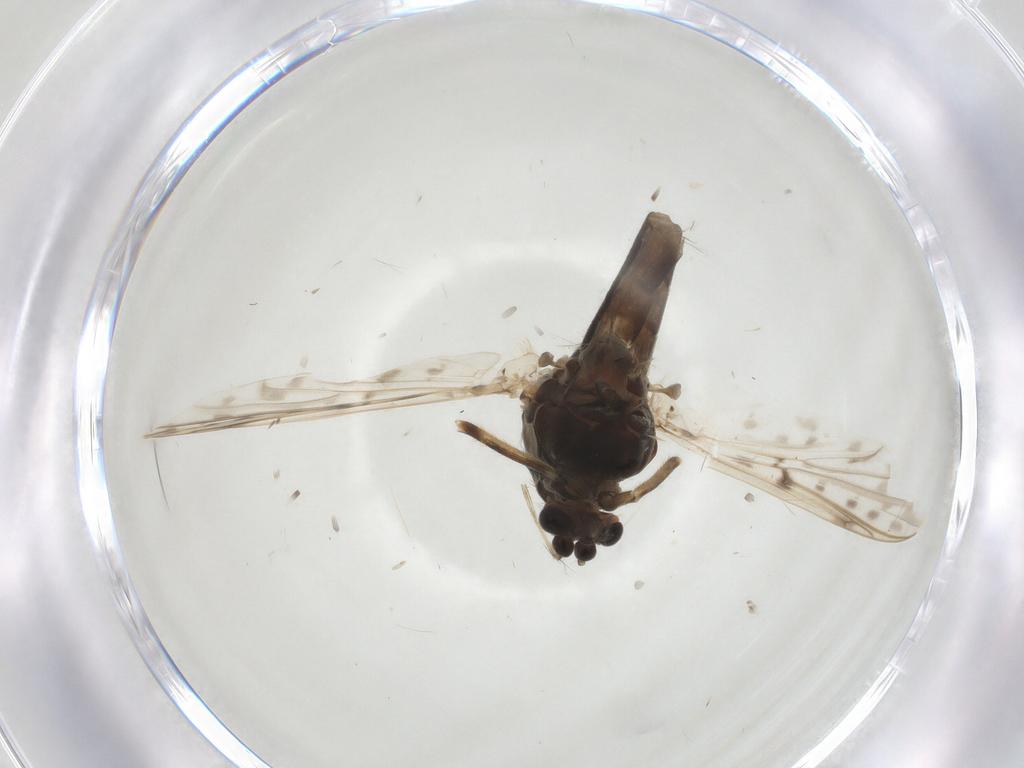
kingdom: Animalia
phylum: Arthropoda
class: Insecta
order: Diptera
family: Chironomidae
